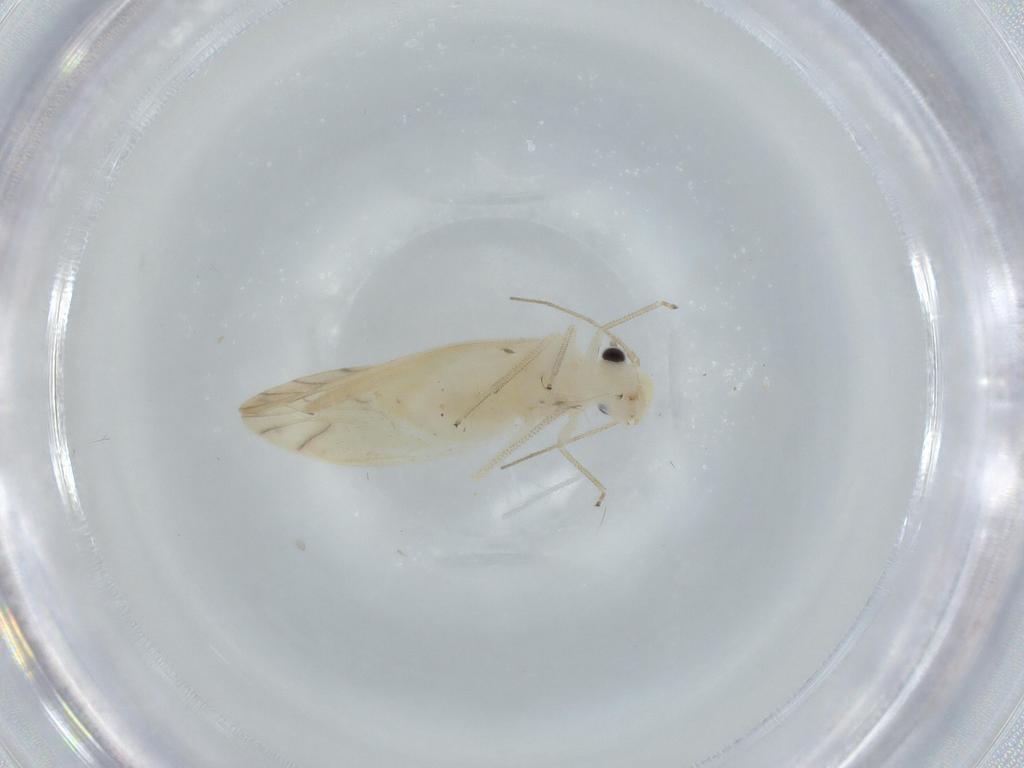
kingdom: Animalia
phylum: Arthropoda
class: Insecta
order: Psocodea
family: Caeciliusidae
